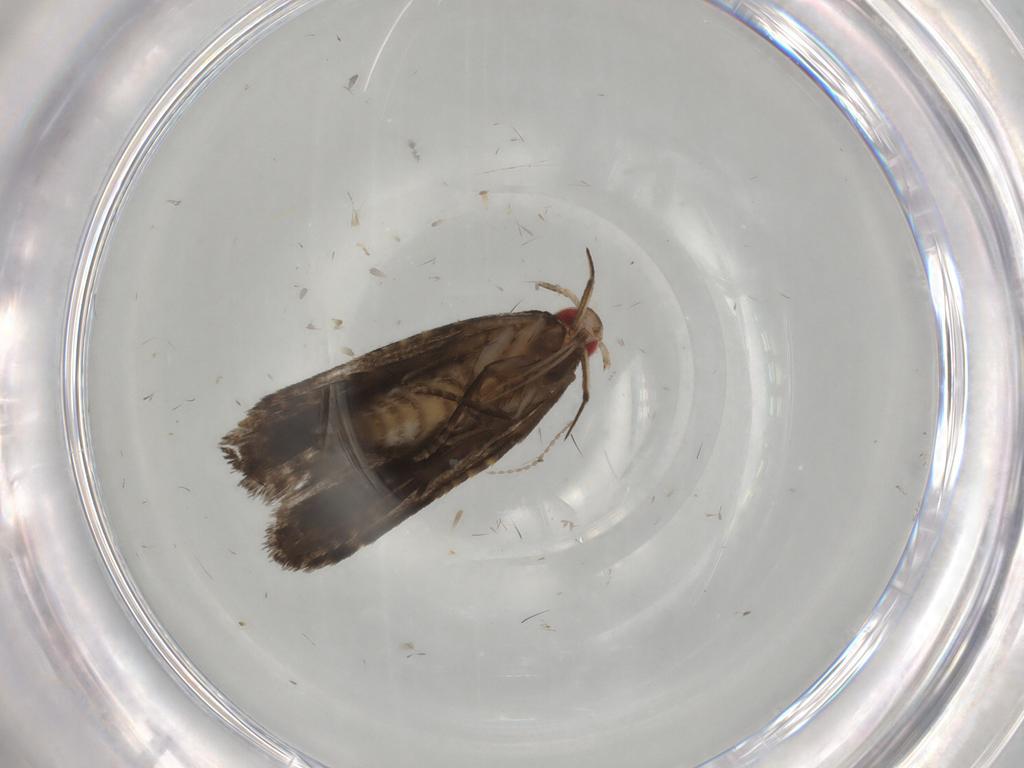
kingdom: Animalia
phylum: Arthropoda
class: Insecta
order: Lepidoptera
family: Gelechiidae
